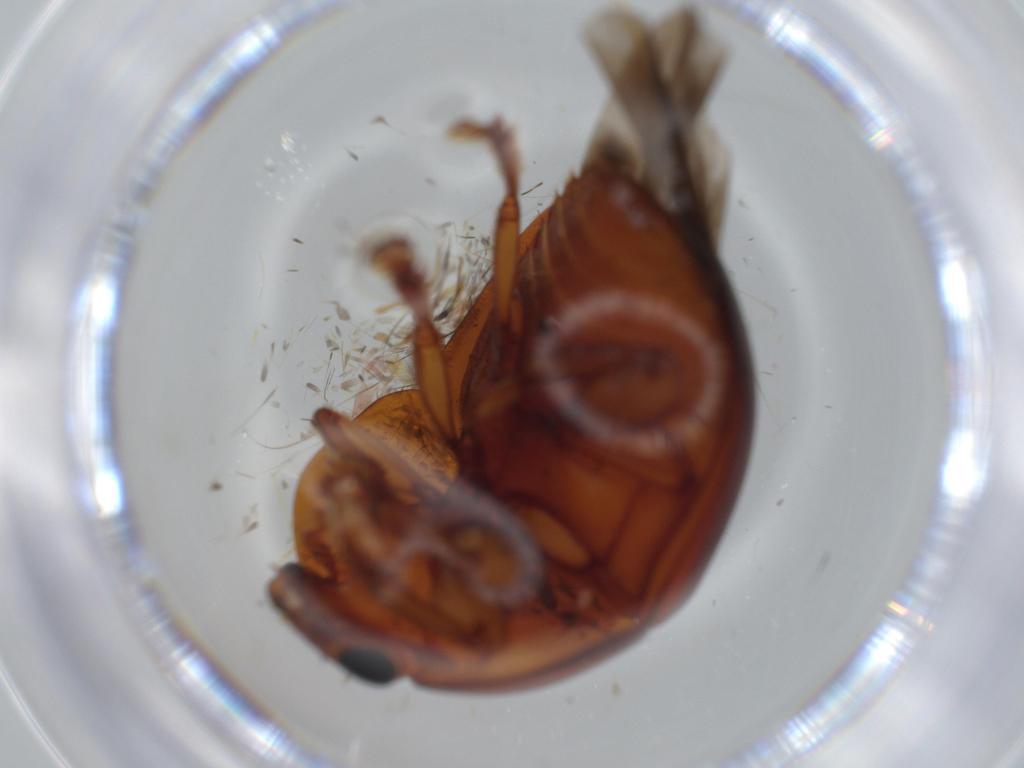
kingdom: Animalia
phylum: Arthropoda
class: Insecta
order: Coleoptera
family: Nitidulidae
